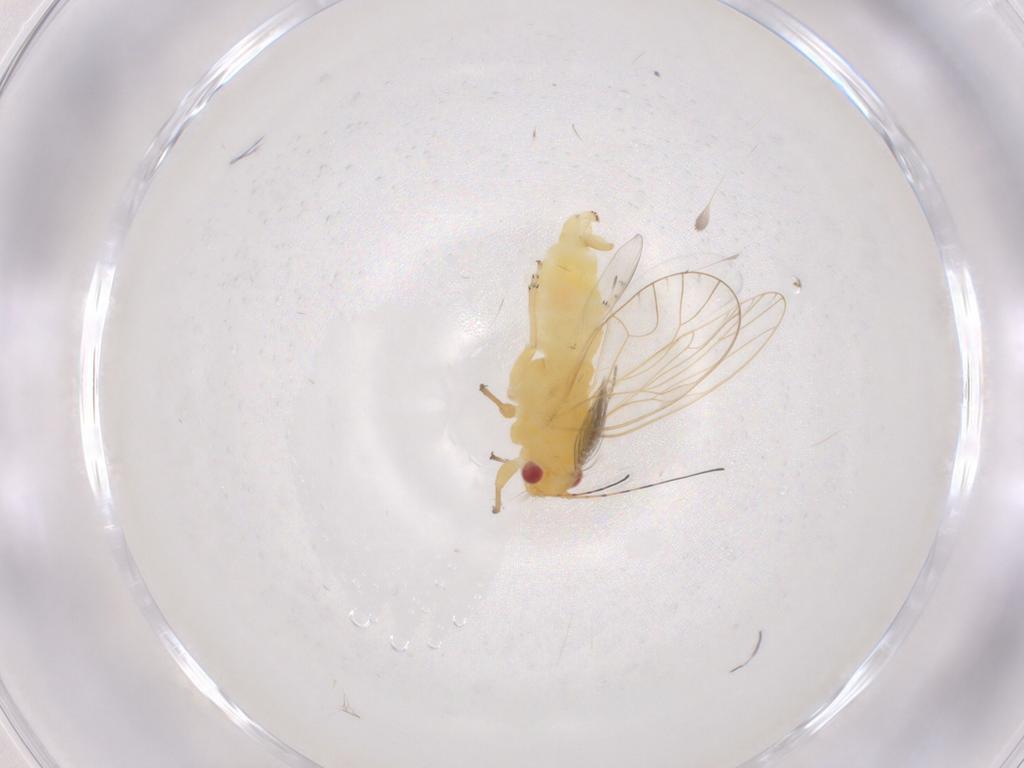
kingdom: Animalia
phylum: Arthropoda
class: Insecta
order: Hemiptera
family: Psyllidae
